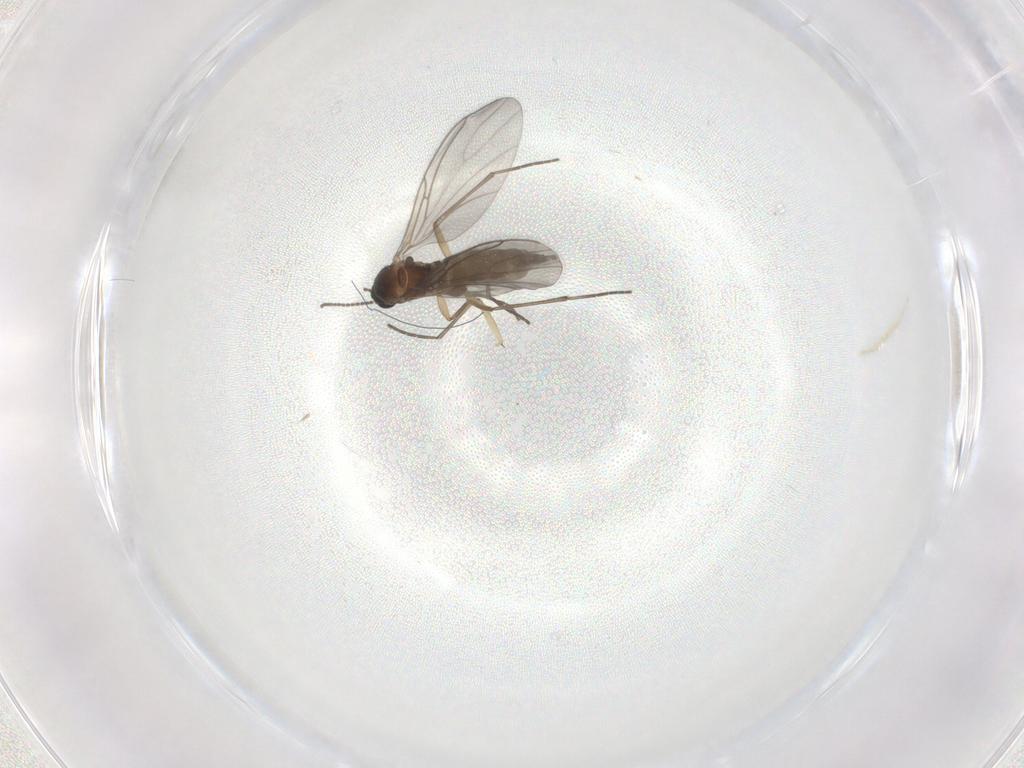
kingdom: Animalia
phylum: Arthropoda
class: Insecta
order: Diptera
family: Sciaridae
